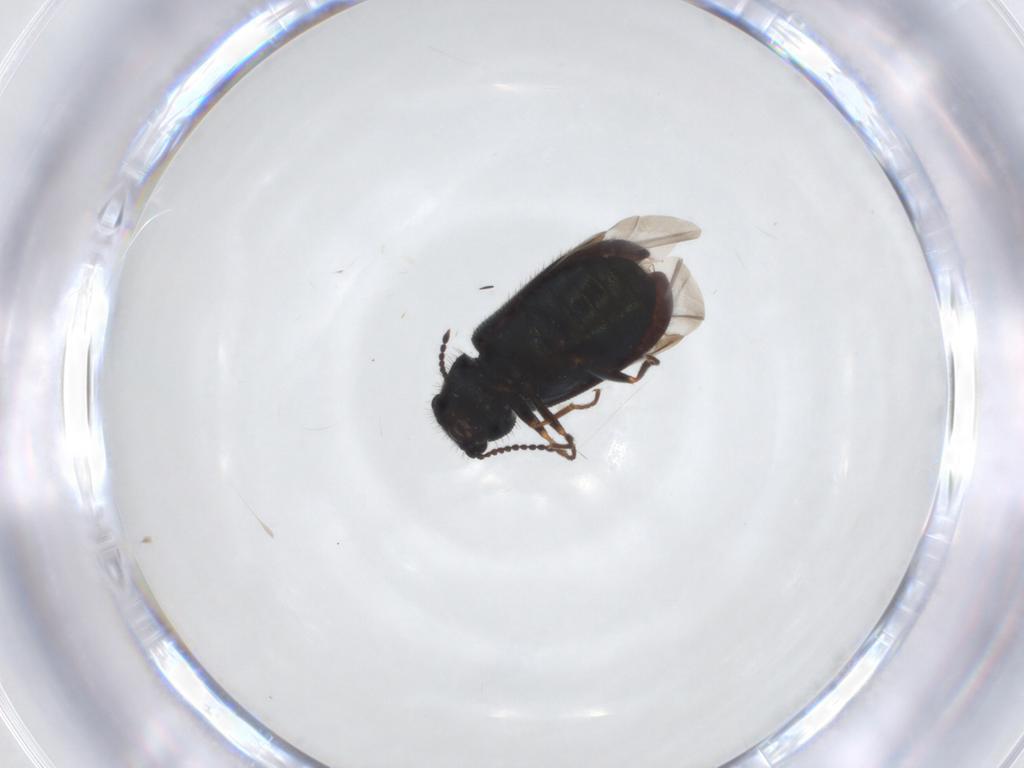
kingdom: Animalia
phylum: Arthropoda
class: Insecta
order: Coleoptera
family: Melyridae
